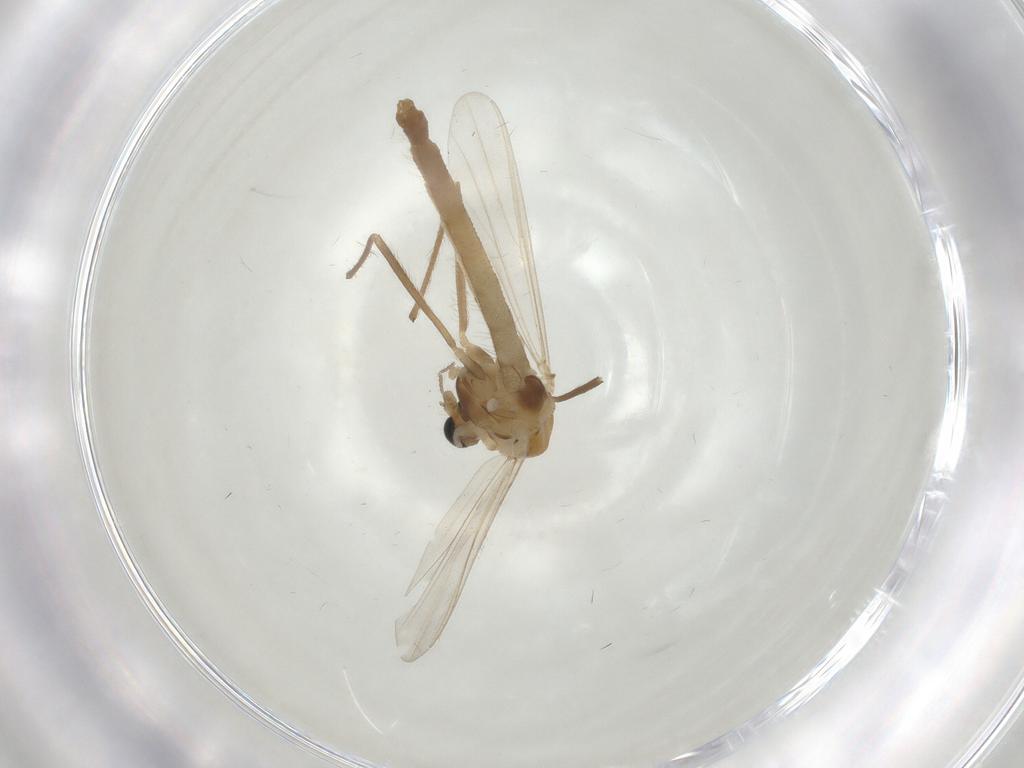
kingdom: Animalia
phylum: Arthropoda
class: Insecta
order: Diptera
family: Chironomidae
